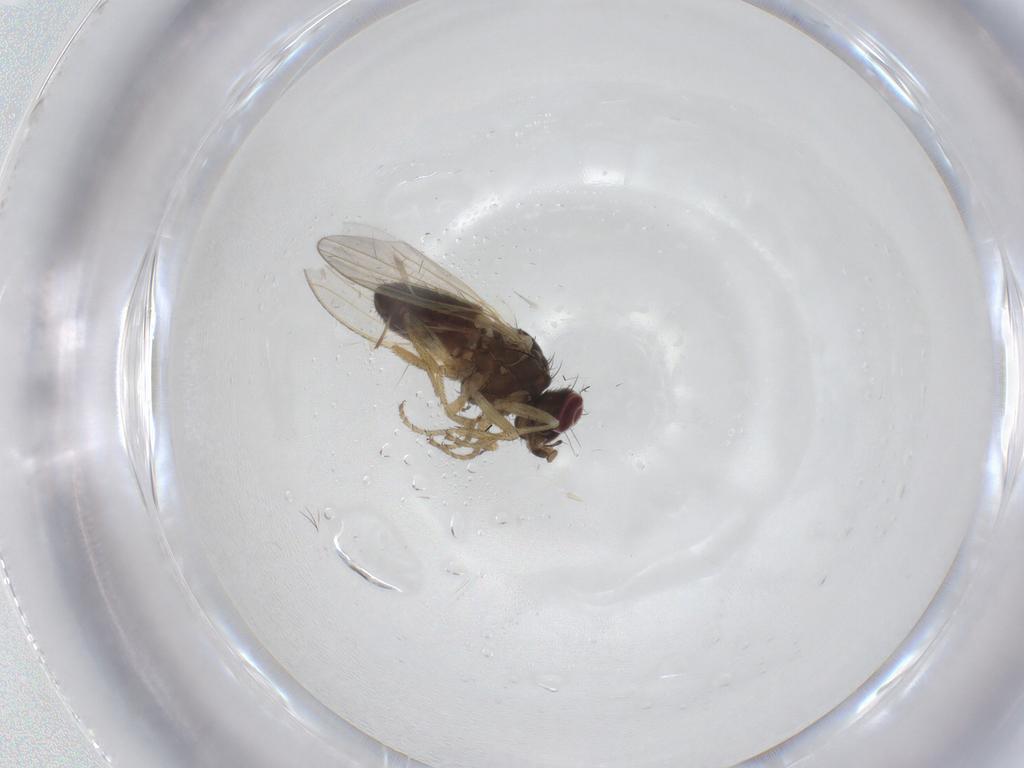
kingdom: Animalia
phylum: Arthropoda
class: Insecta
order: Diptera
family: Heleomyzidae
